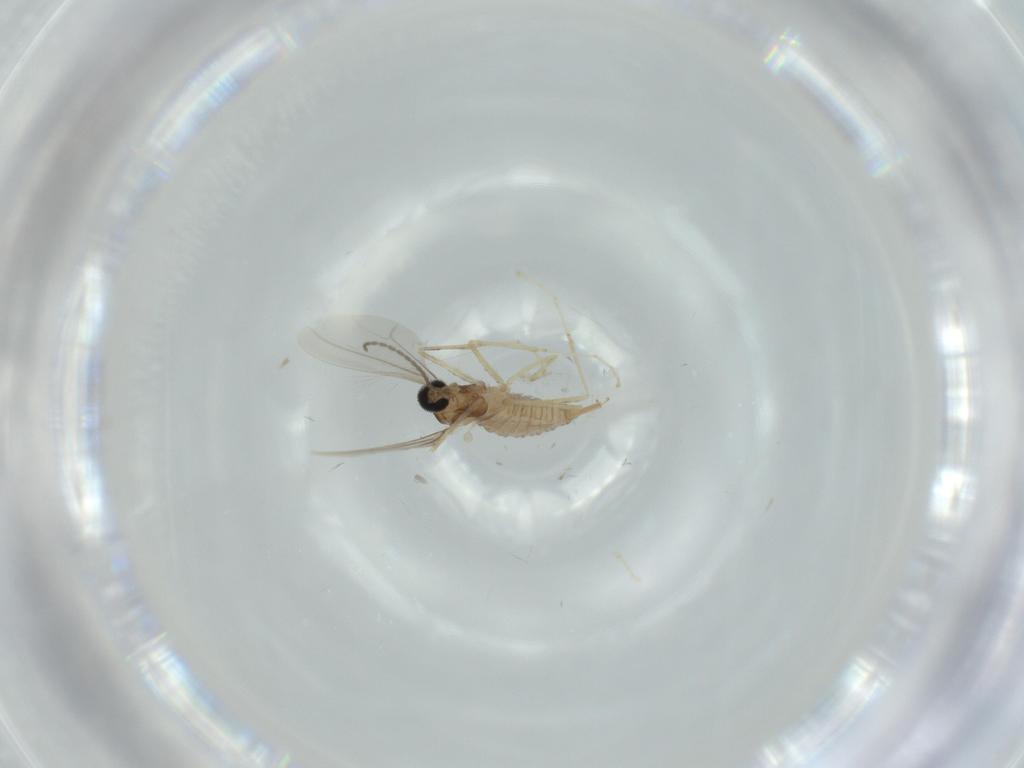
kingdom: Animalia
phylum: Arthropoda
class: Insecta
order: Diptera
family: Cecidomyiidae
